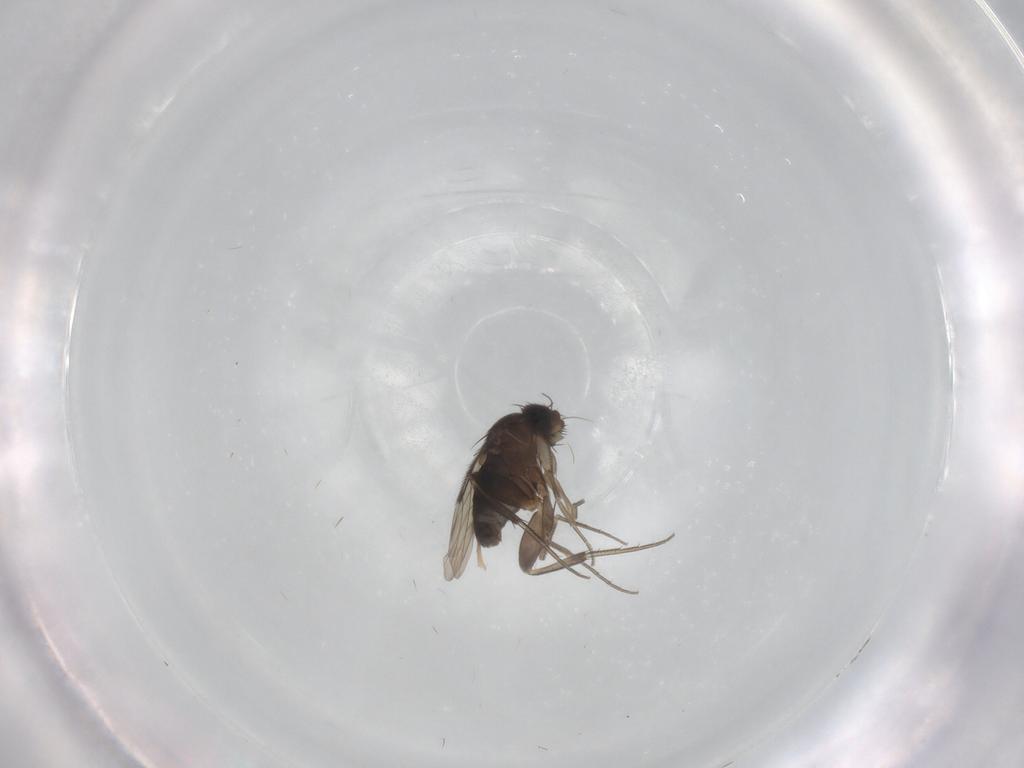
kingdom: Animalia
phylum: Arthropoda
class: Insecta
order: Diptera
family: Phoridae
